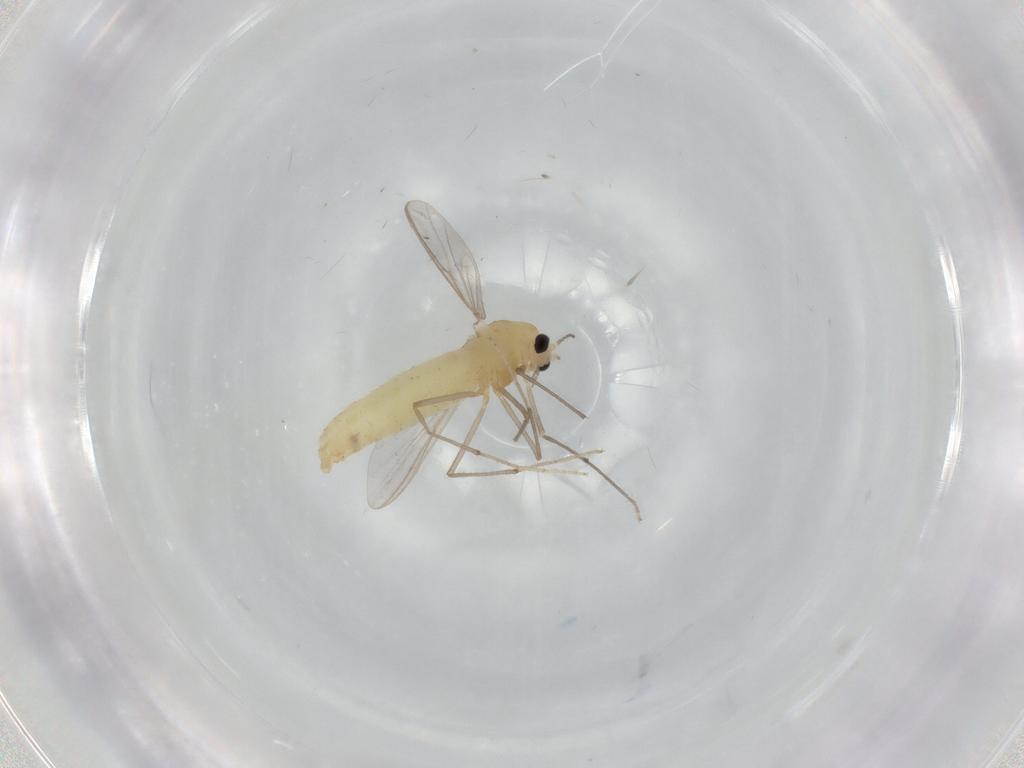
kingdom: Animalia
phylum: Arthropoda
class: Insecta
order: Diptera
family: Chironomidae
